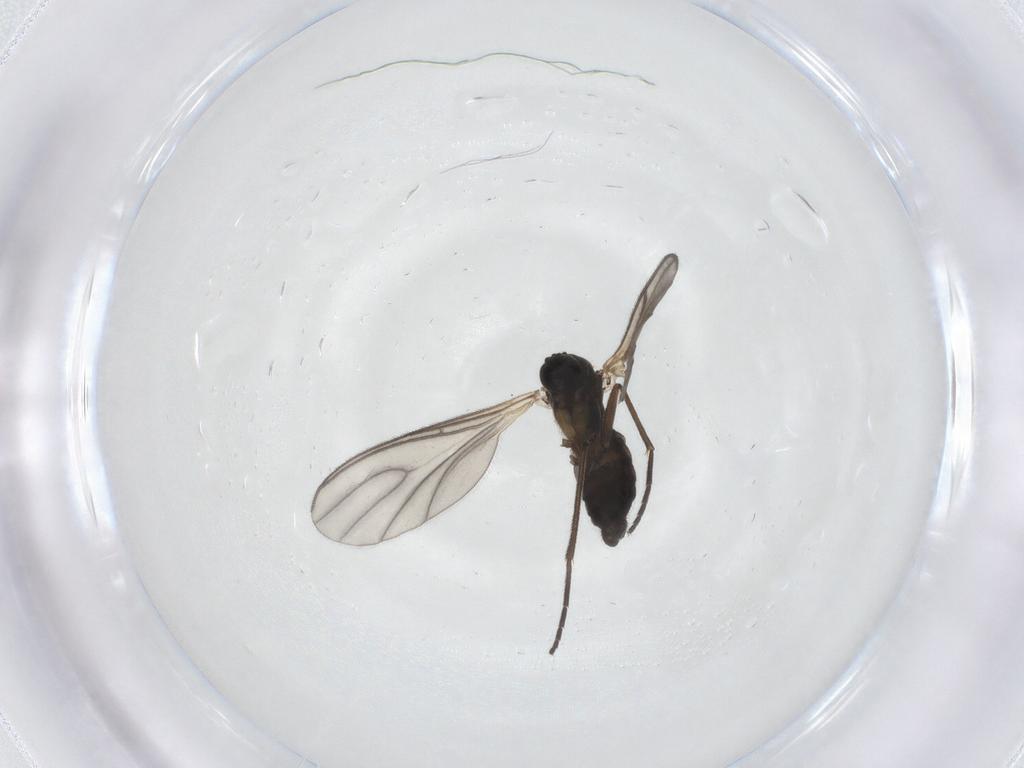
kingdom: Animalia
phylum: Arthropoda
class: Insecta
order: Diptera
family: Sciaridae
